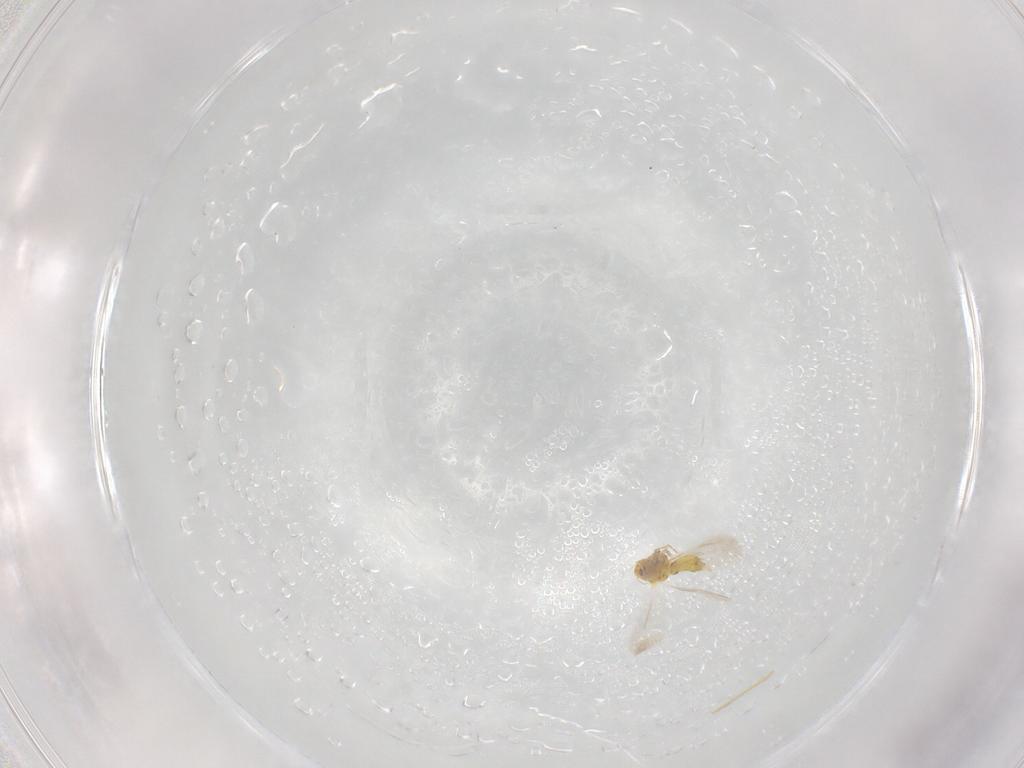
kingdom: Animalia
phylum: Arthropoda
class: Insecta
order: Hemiptera
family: Aleyrodidae
